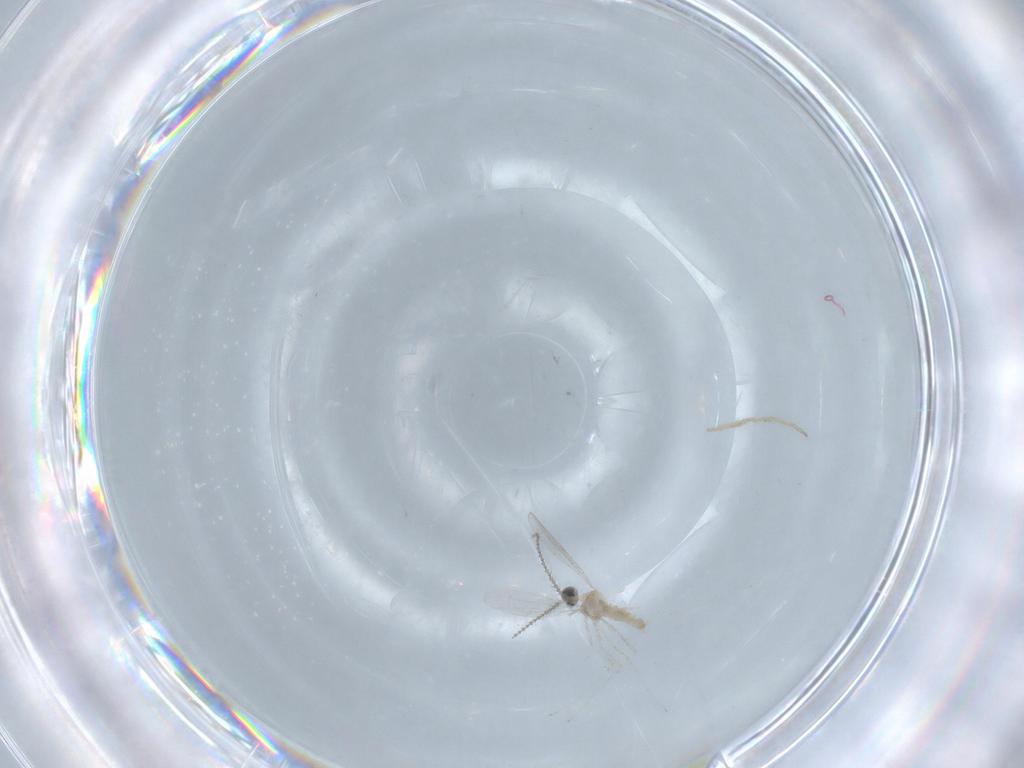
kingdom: Animalia
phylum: Arthropoda
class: Insecta
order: Diptera
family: Cecidomyiidae
